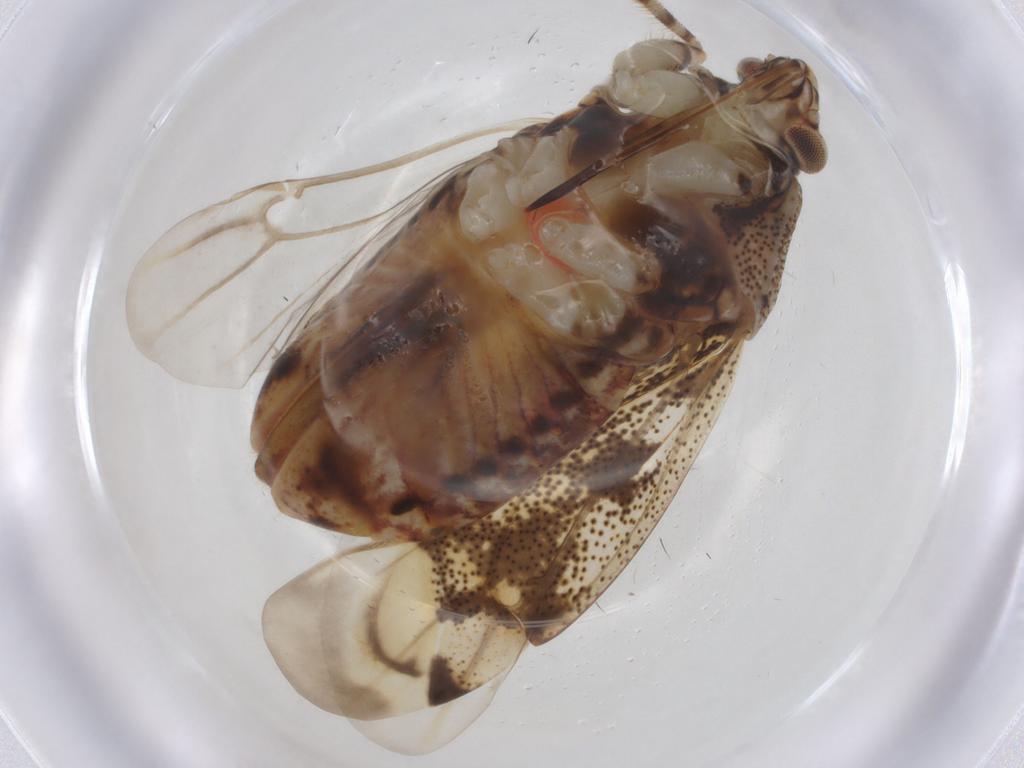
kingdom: Animalia
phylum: Arthropoda
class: Insecta
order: Hemiptera
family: Miridae
